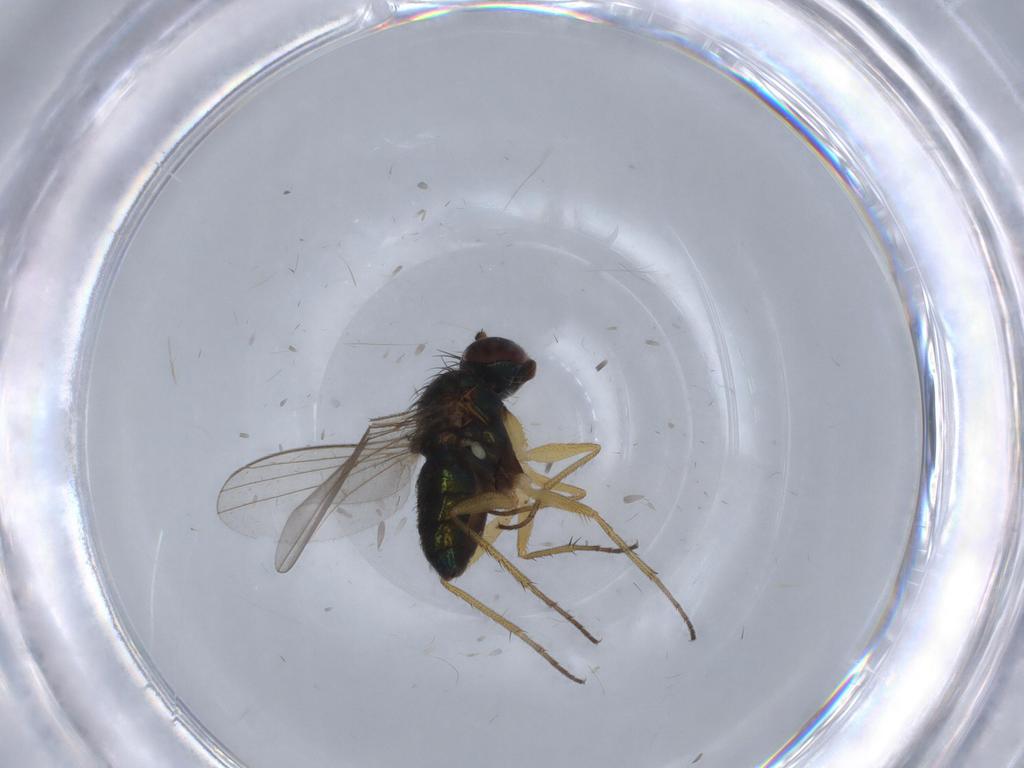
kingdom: Animalia
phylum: Arthropoda
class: Insecta
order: Diptera
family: Dolichopodidae
